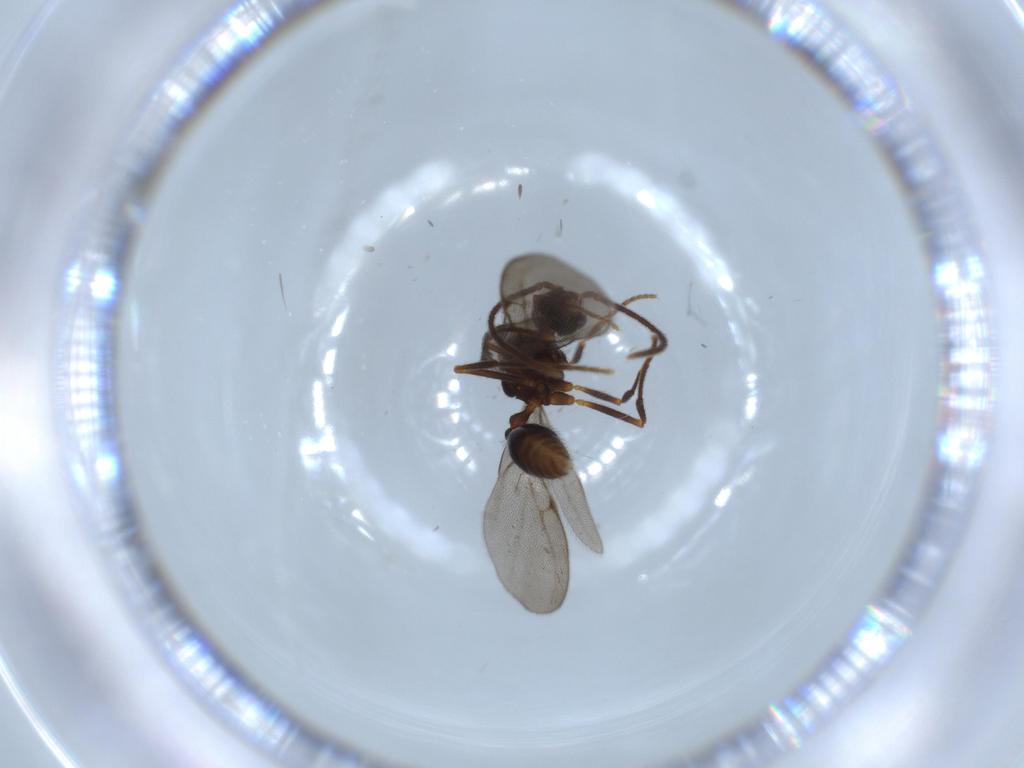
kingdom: Animalia
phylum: Arthropoda
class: Insecta
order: Hymenoptera
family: Formicidae
